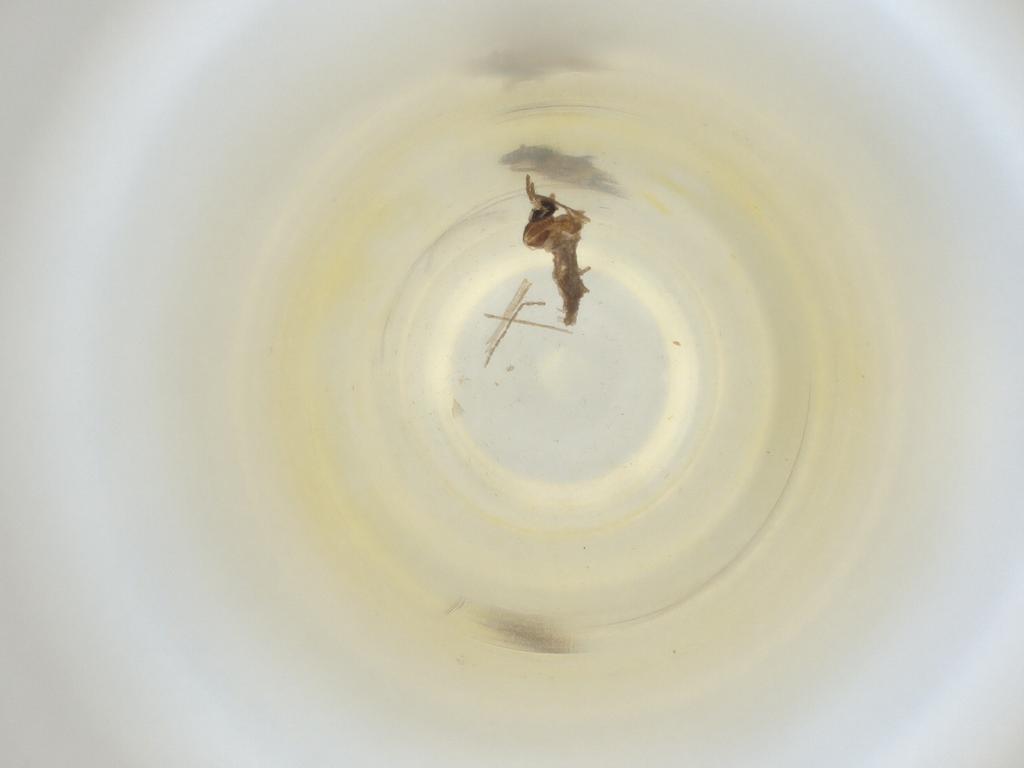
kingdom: Animalia
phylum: Arthropoda
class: Insecta
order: Diptera
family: Cecidomyiidae
